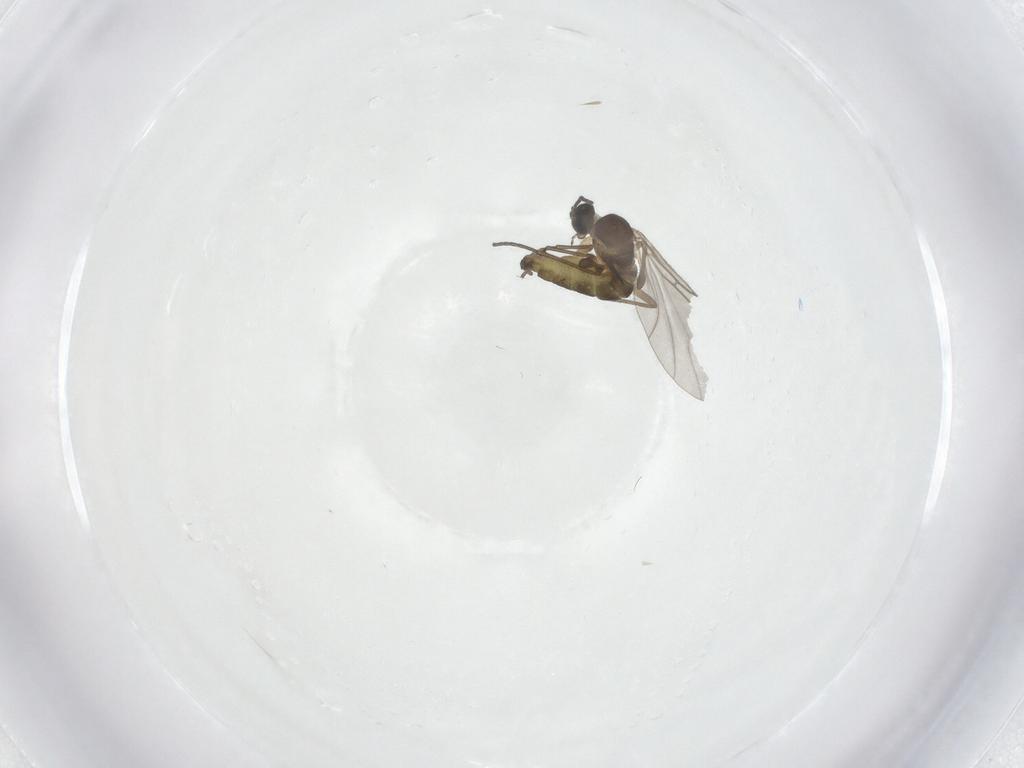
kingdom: Animalia
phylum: Arthropoda
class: Insecta
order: Diptera
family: Sciaridae
